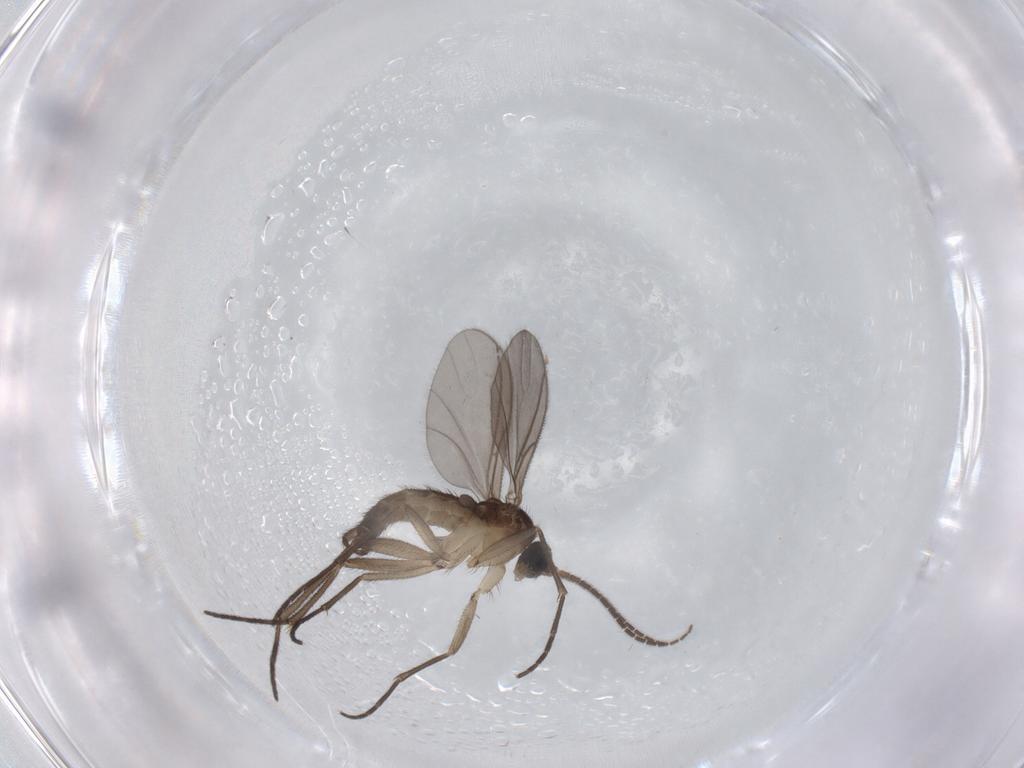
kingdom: Animalia
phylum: Arthropoda
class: Insecta
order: Diptera
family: Sciaridae
